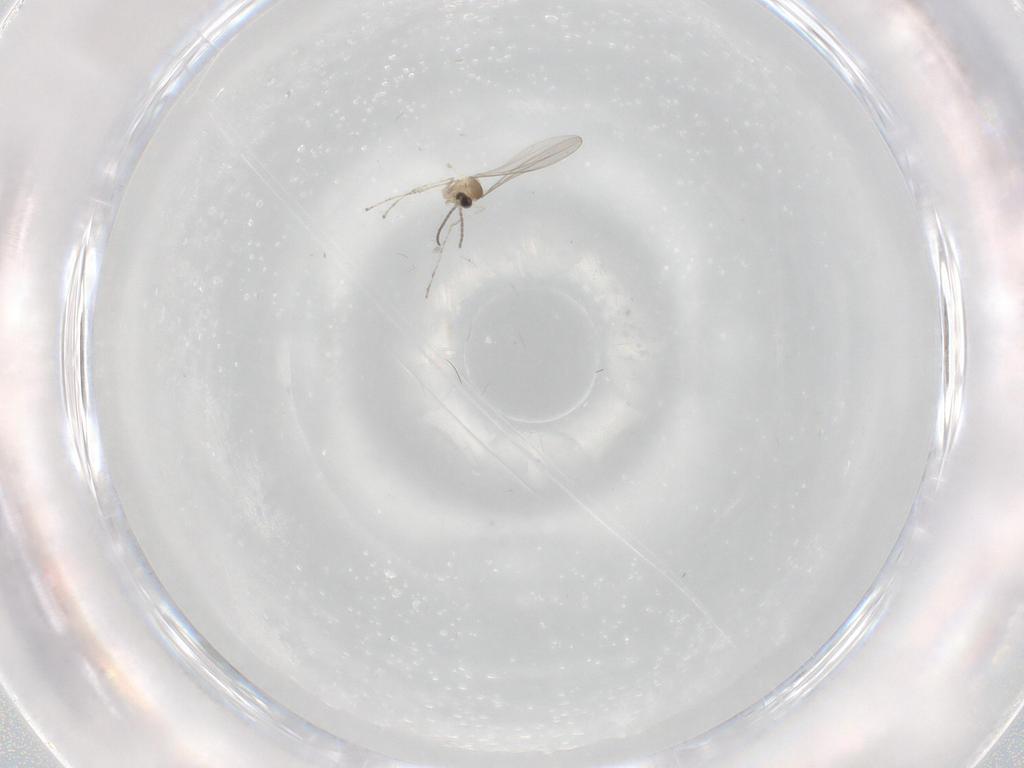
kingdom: Animalia
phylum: Arthropoda
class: Insecta
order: Diptera
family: Cecidomyiidae
